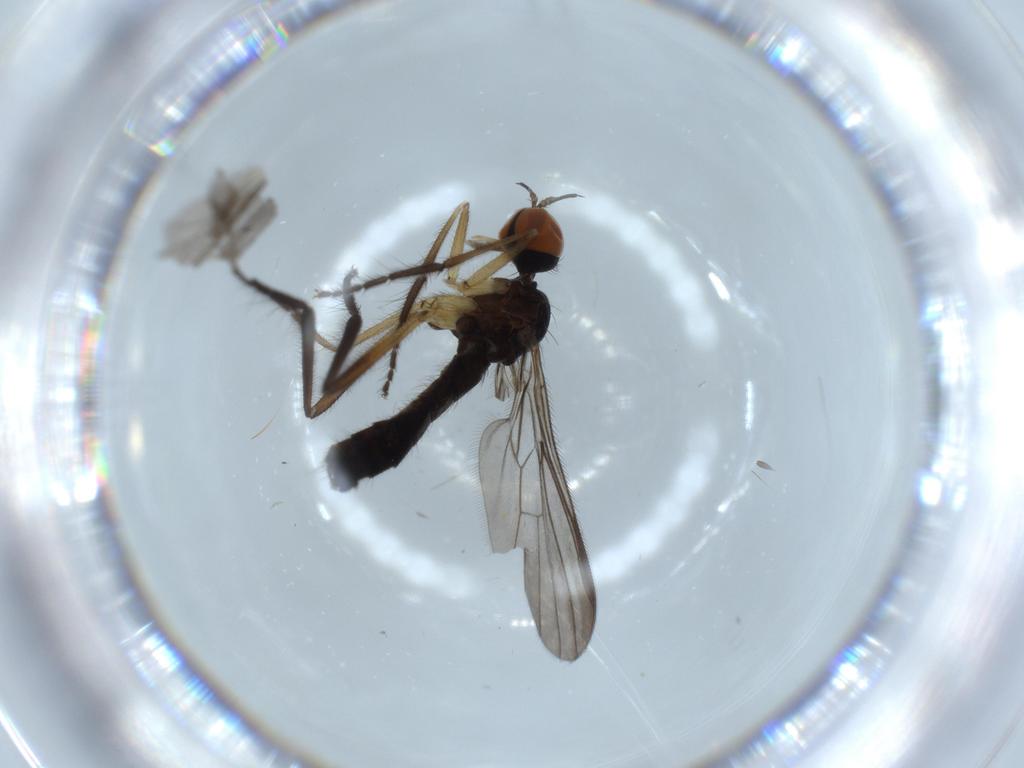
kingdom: Animalia
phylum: Arthropoda
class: Insecta
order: Diptera
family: Empididae
